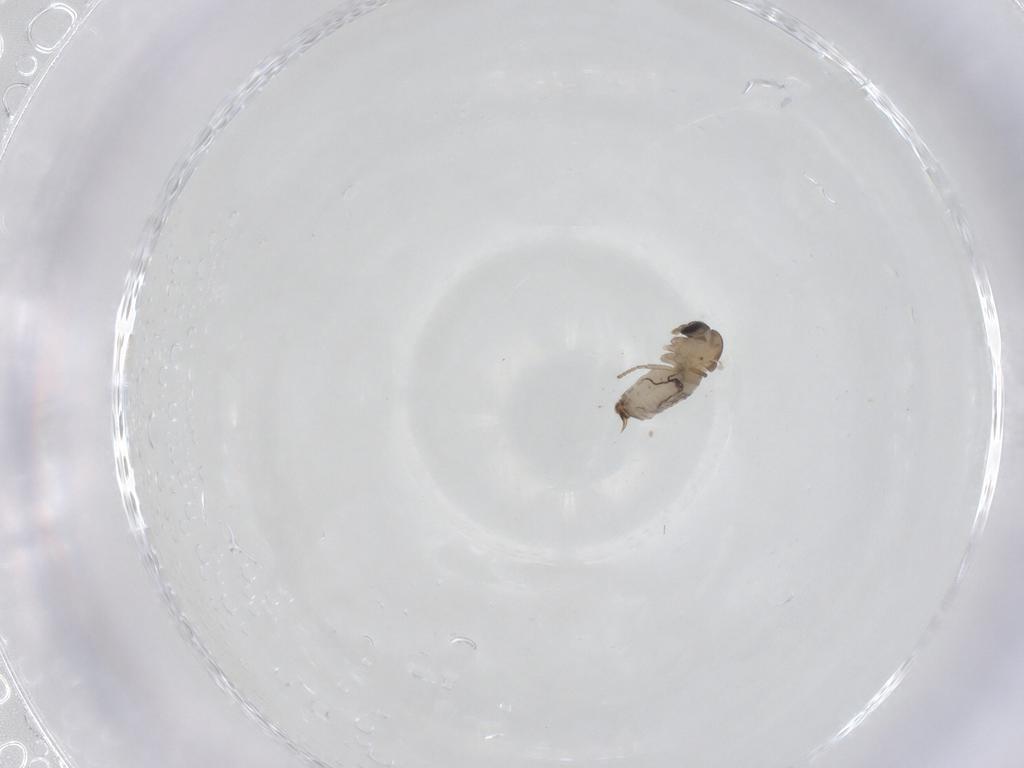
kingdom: Animalia
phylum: Arthropoda
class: Insecta
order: Diptera
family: Psychodidae
